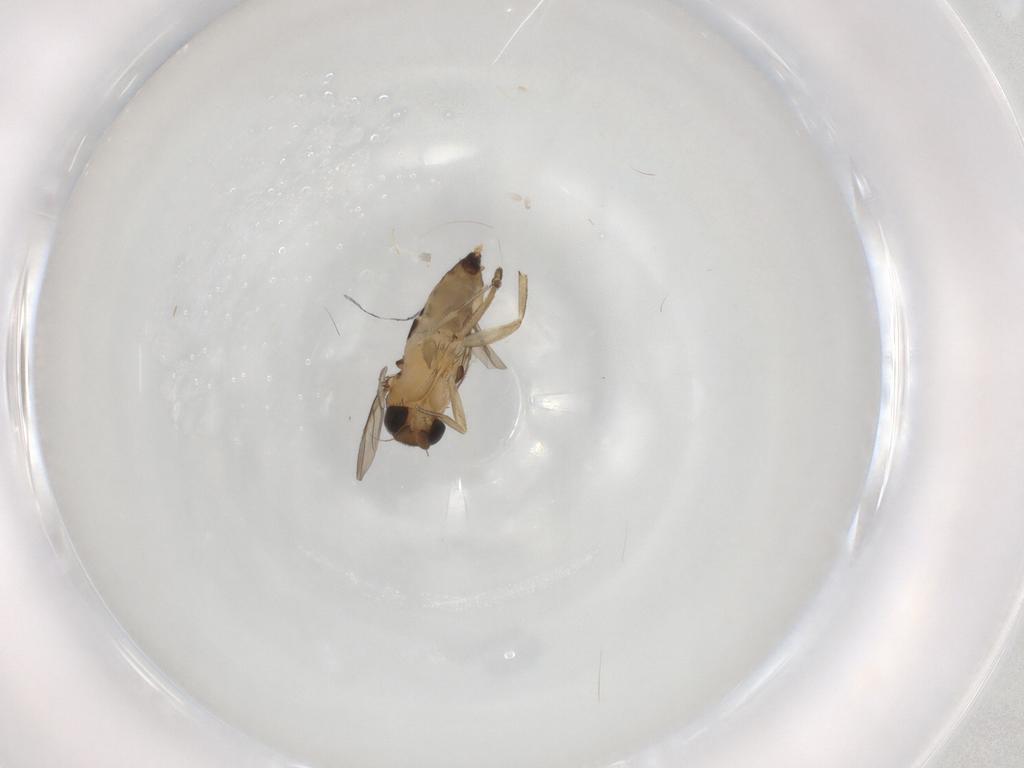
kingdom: Animalia
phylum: Arthropoda
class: Insecta
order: Diptera
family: Phoridae
